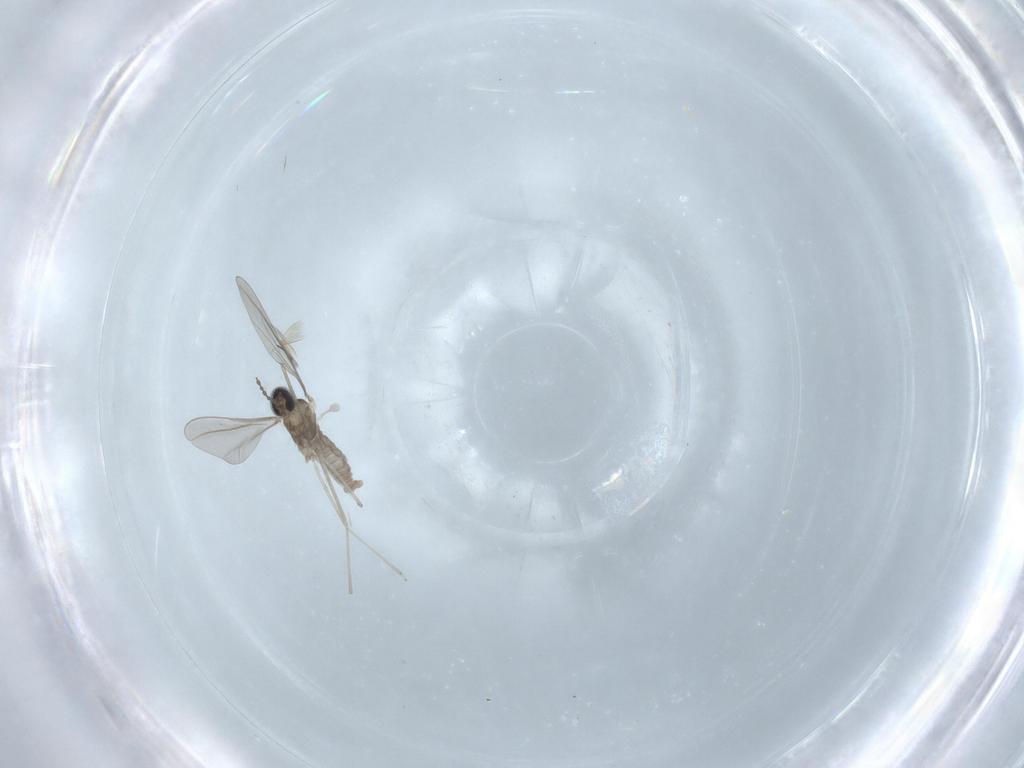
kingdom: Animalia
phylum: Arthropoda
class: Insecta
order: Diptera
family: Cecidomyiidae
